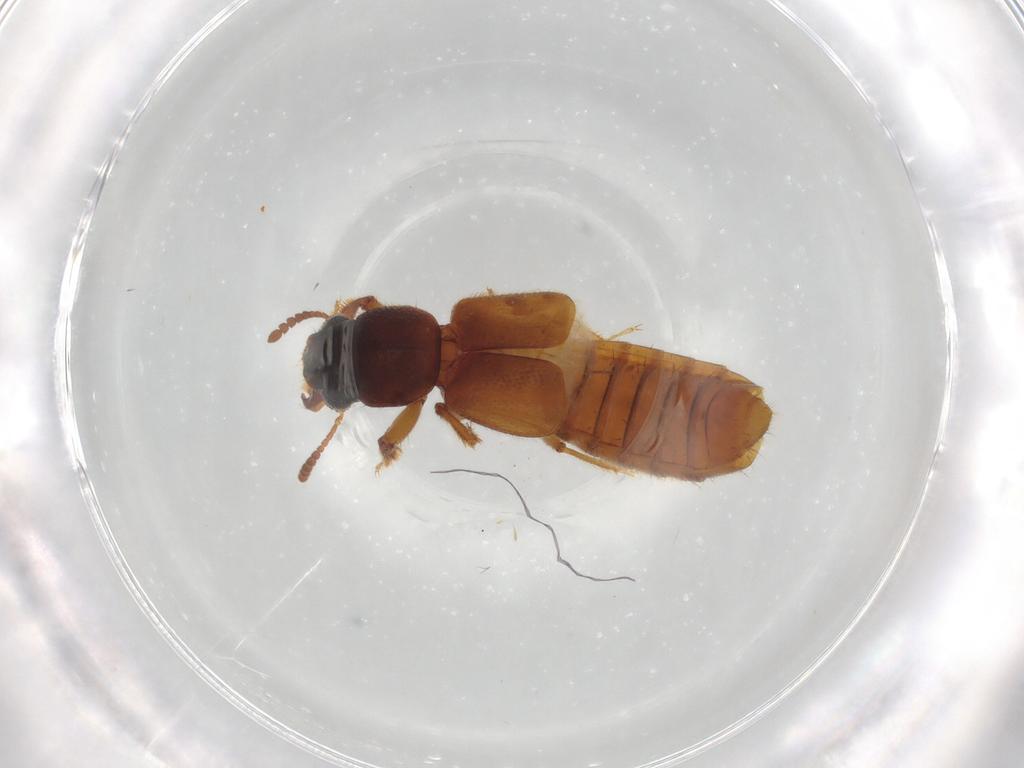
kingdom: Animalia
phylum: Arthropoda
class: Insecta
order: Coleoptera
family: Staphylinidae
